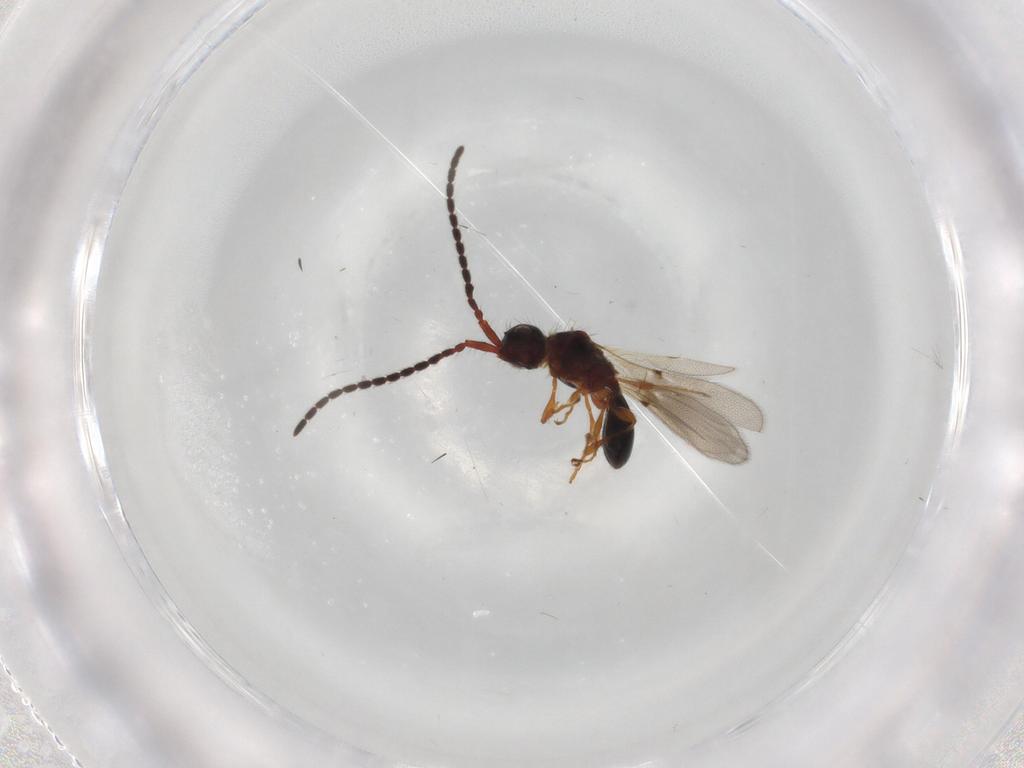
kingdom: Animalia
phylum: Arthropoda
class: Insecta
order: Hymenoptera
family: Diapriidae
